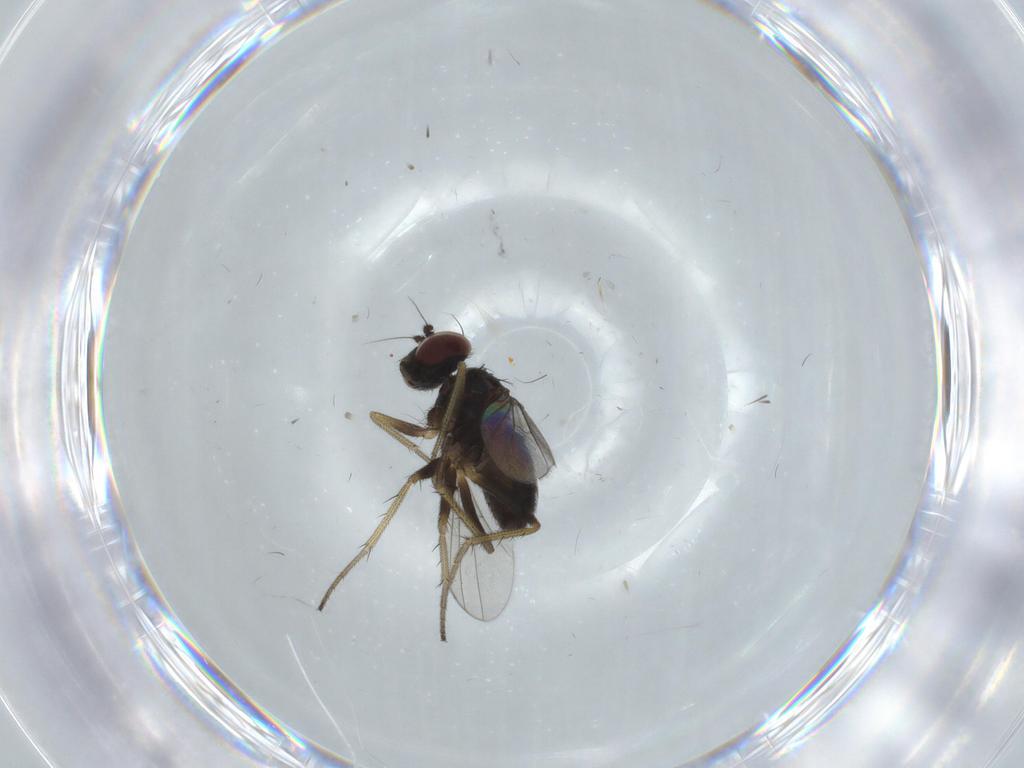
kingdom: Animalia
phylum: Arthropoda
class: Insecta
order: Diptera
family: Dolichopodidae
